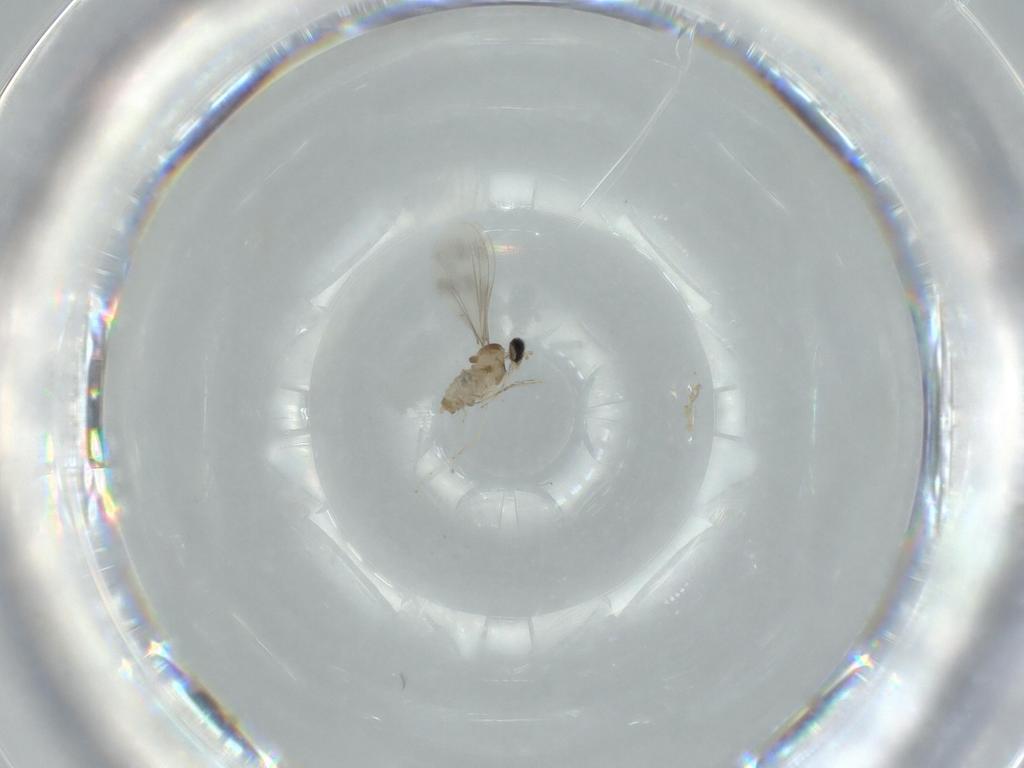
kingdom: Animalia
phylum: Arthropoda
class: Insecta
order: Diptera
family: Cecidomyiidae
